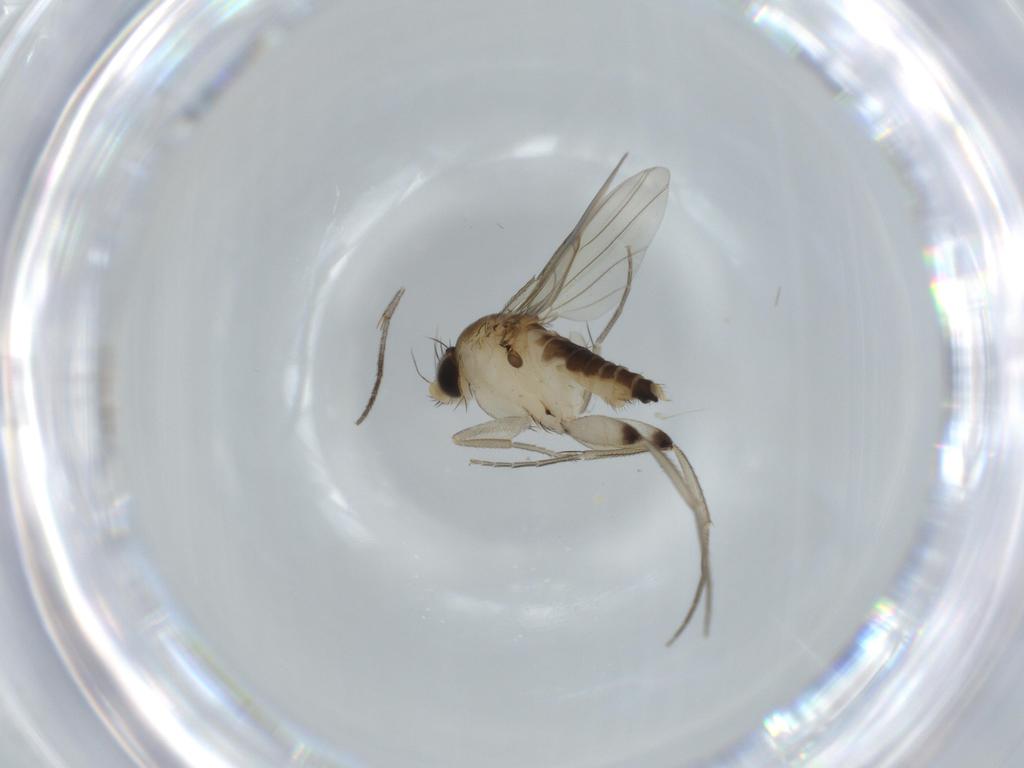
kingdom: Animalia
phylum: Arthropoda
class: Insecta
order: Diptera
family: Sciaridae
